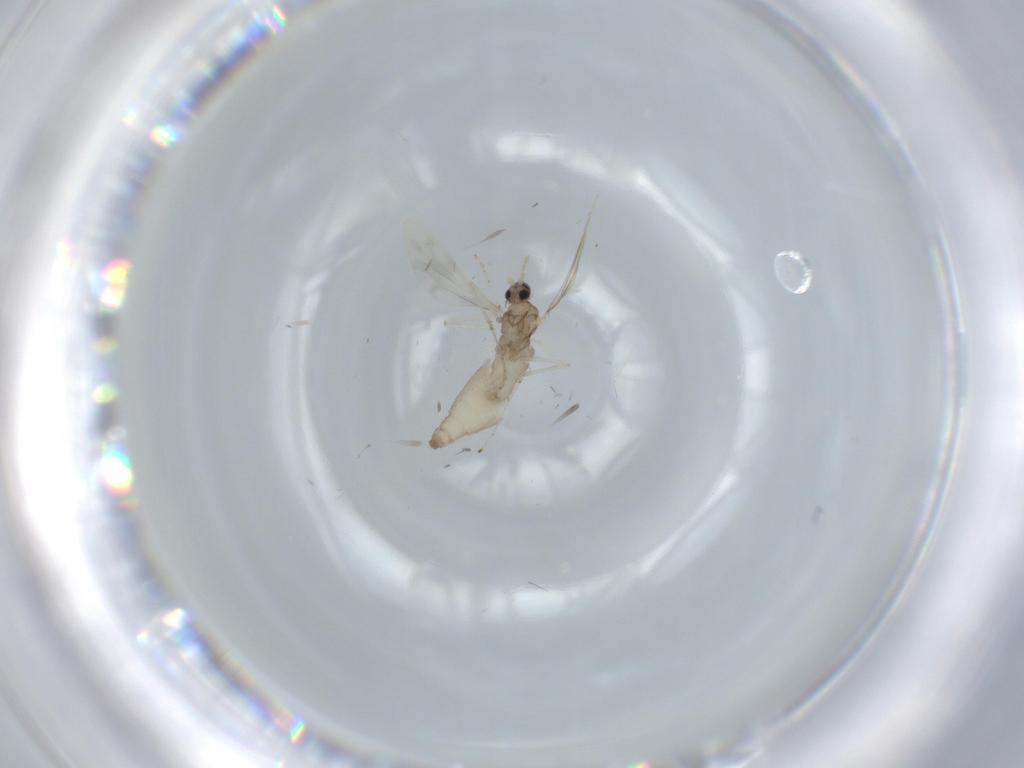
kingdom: Animalia
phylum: Arthropoda
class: Insecta
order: Diptera
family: Cecidomyiidae
